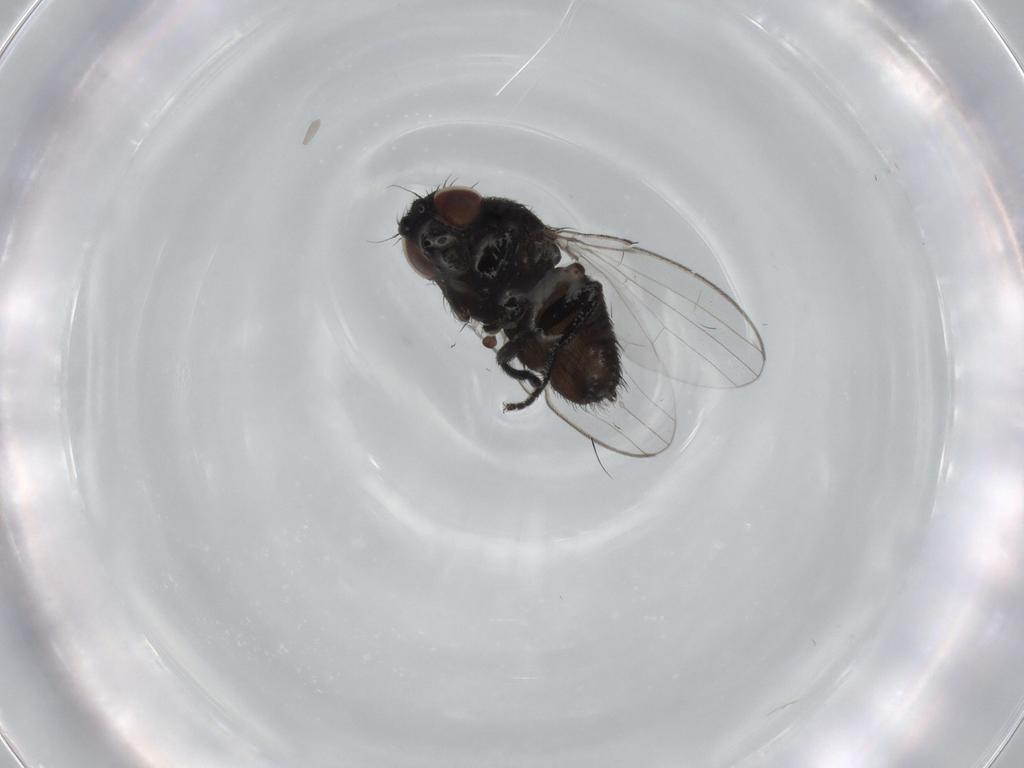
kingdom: Animalia
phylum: Arthropoda
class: Insecta
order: Diptera
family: Milichiidae
